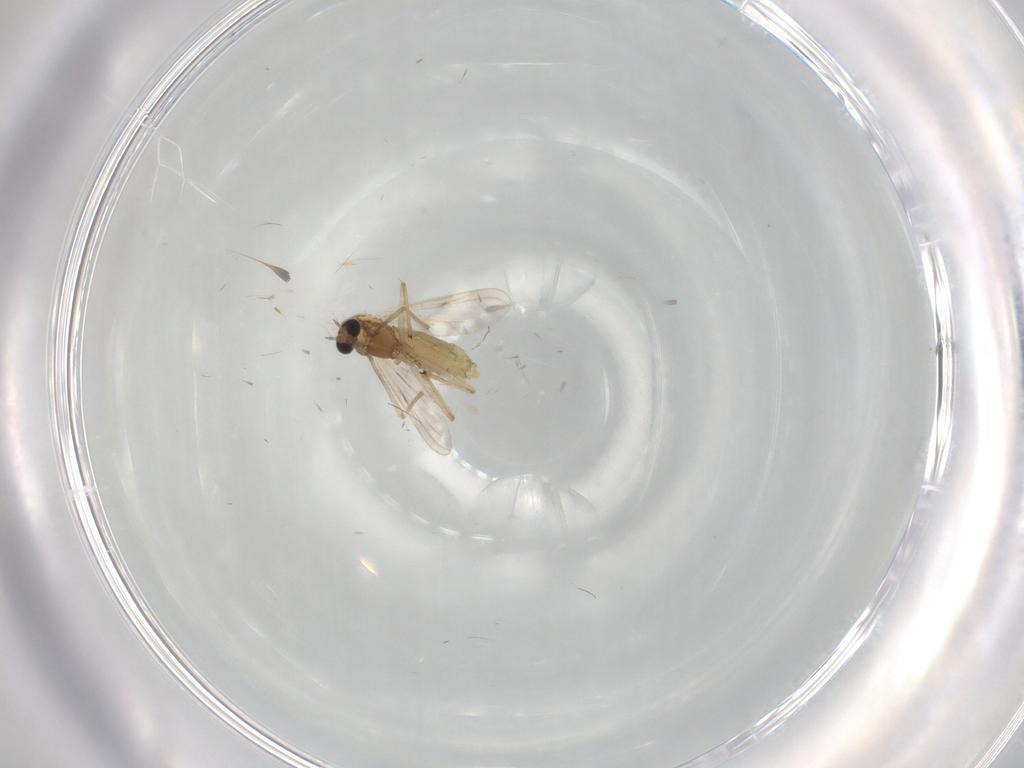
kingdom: Animalia
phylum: Arthropoda
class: Insecta
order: Diptera
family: Chironomidae
